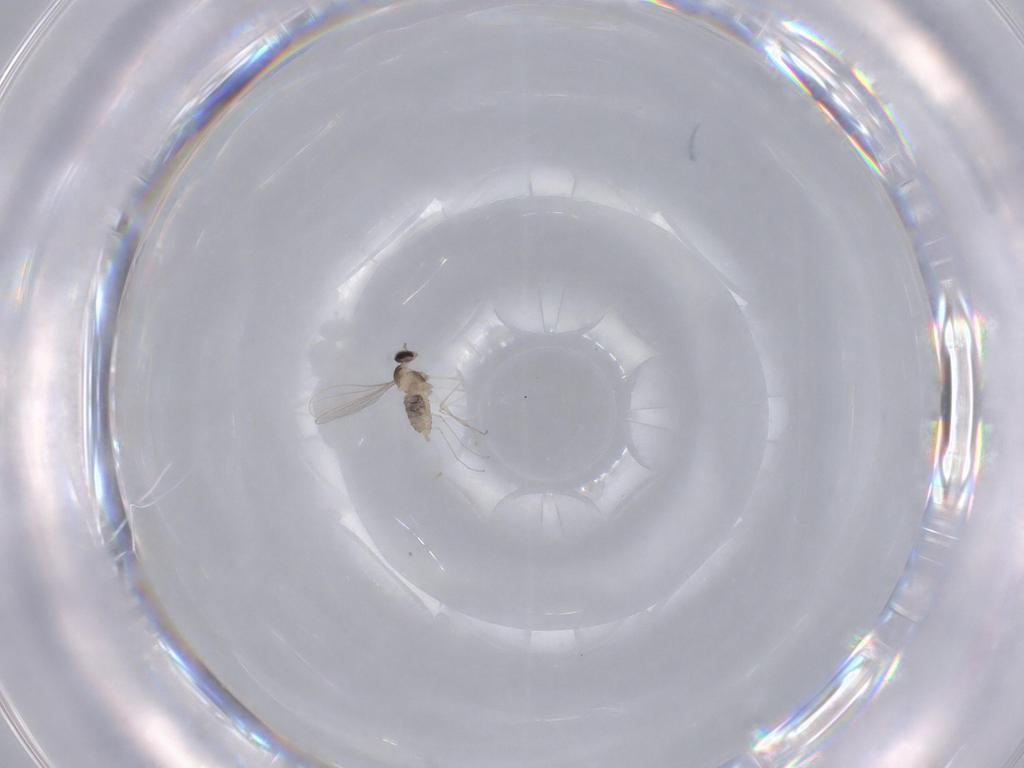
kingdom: Animalia
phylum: Arthropoda
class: Insecta
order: Diptera
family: Cecidomyiidae
